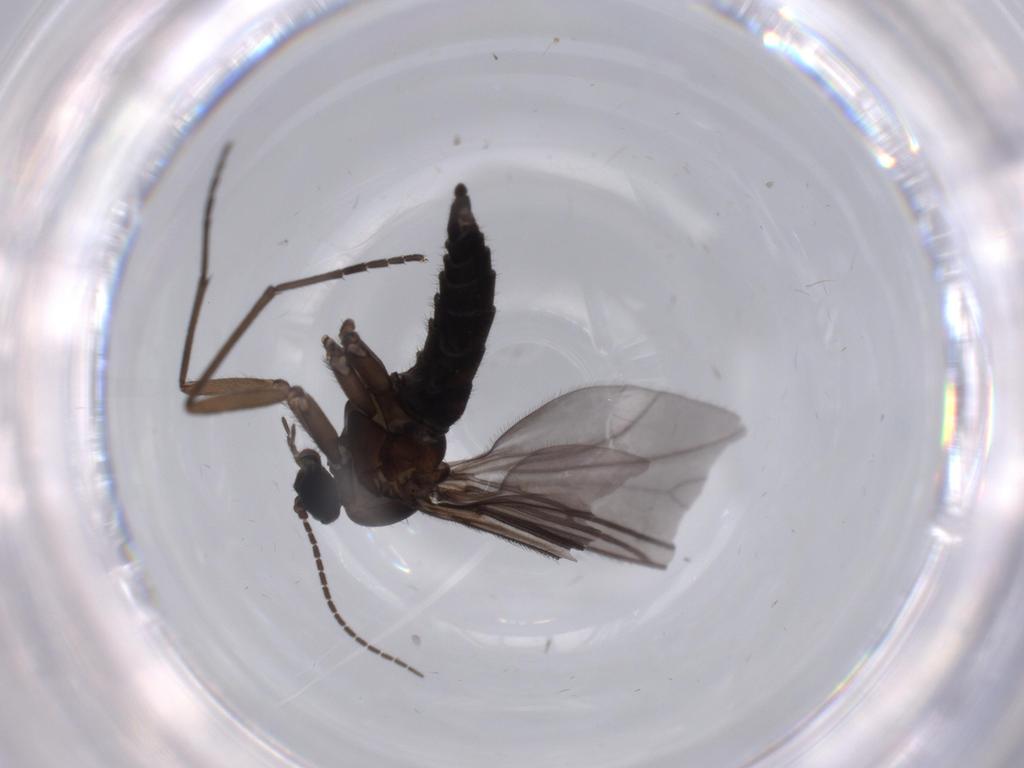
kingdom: Animalia
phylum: Arthropoda
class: Insecta
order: Diptera
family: Sciaridae
